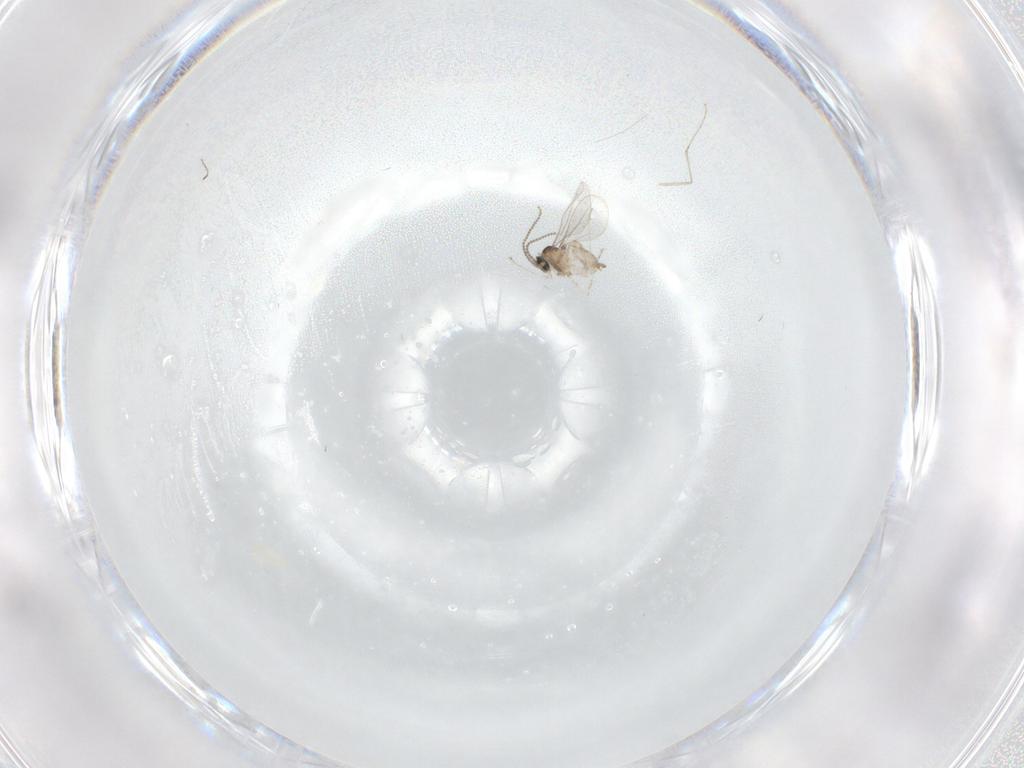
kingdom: Animalia
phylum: Arthropoda
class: Insecta
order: Diptera
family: Cecidomyiidae
